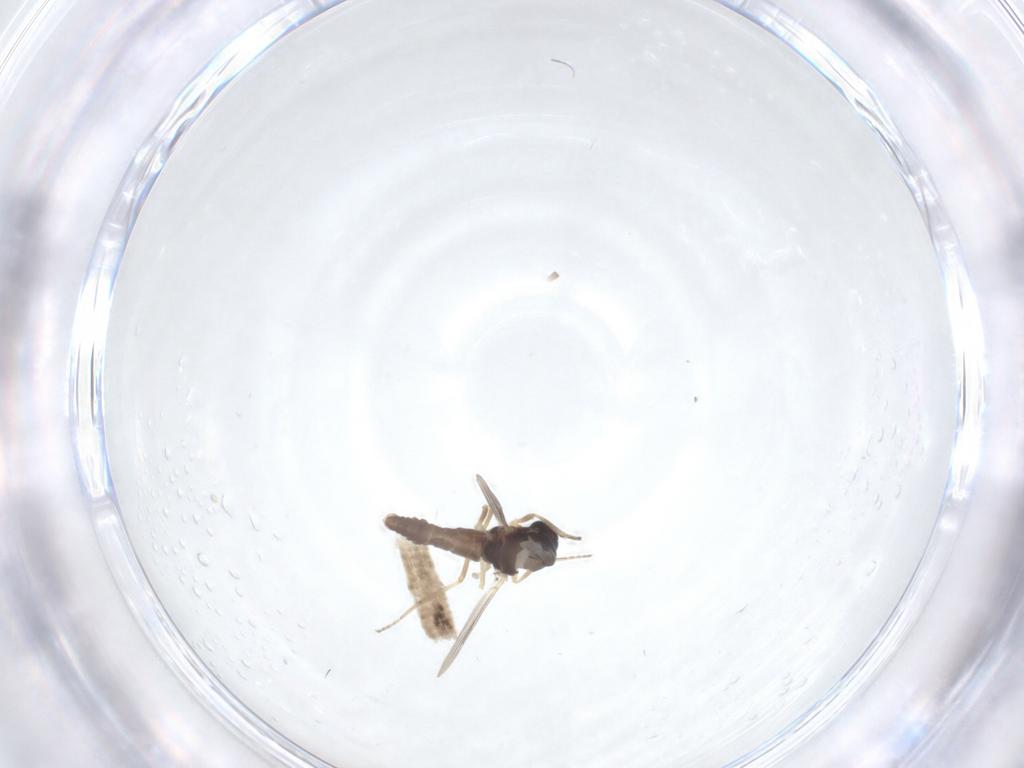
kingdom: Animalia
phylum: Arthropoda
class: Insecta
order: Diptera
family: Ceratopogonidae
